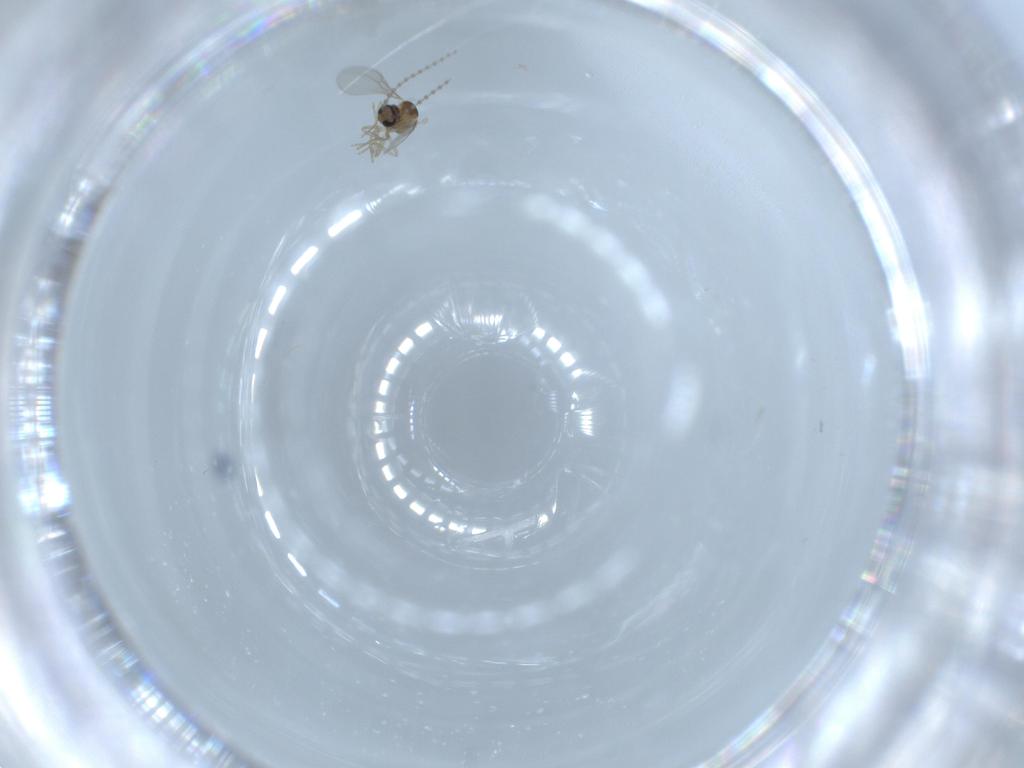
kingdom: Animalia
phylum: Arthropoda
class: Insecta
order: Diptera
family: Cecidomyiidae
